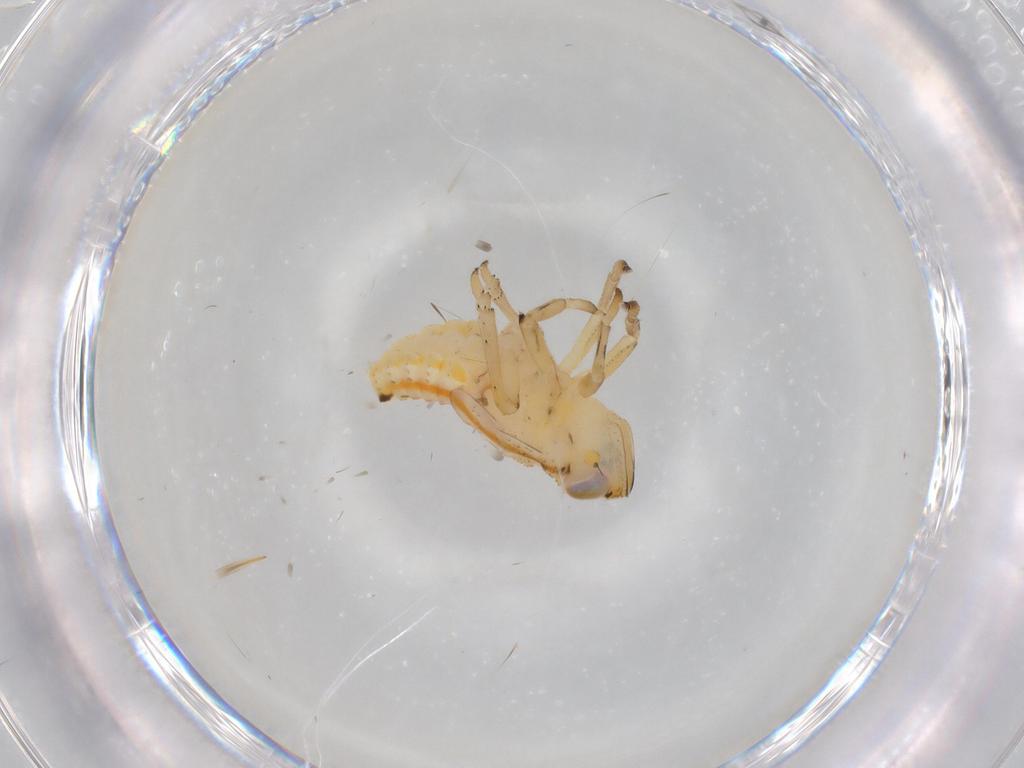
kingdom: Animalia
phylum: Arthropoda
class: Insecta
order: Hemiptera
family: Issidae
